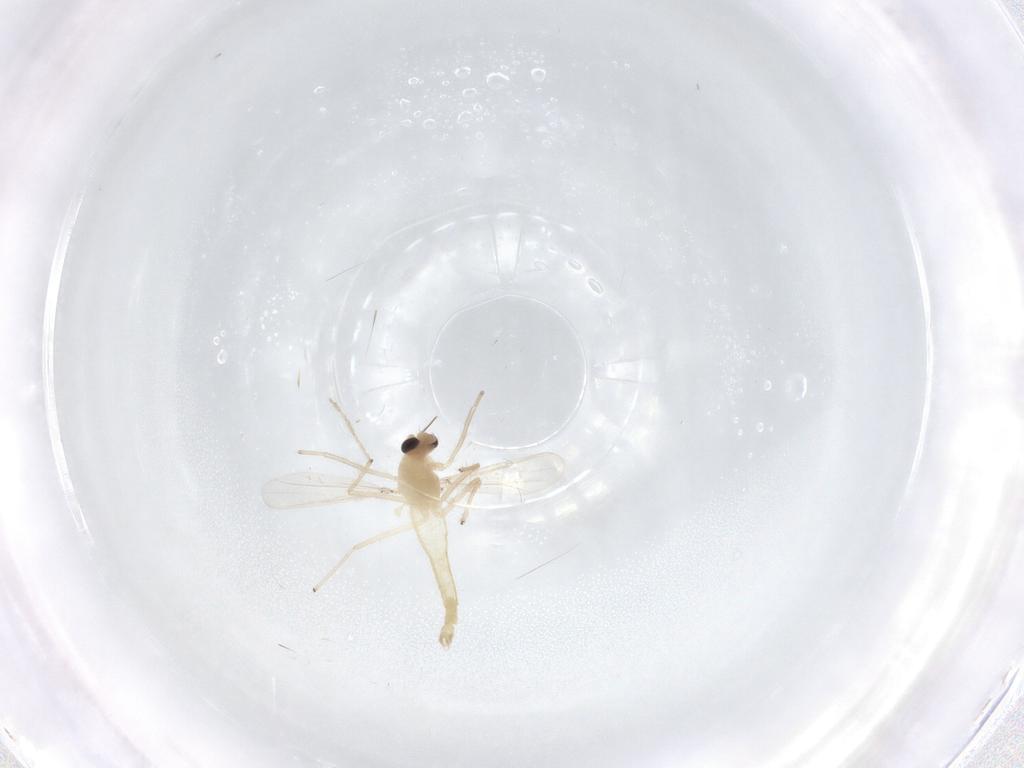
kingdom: Animalia
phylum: Arthropoda
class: Insecta
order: Diptera
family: Chironomidae
